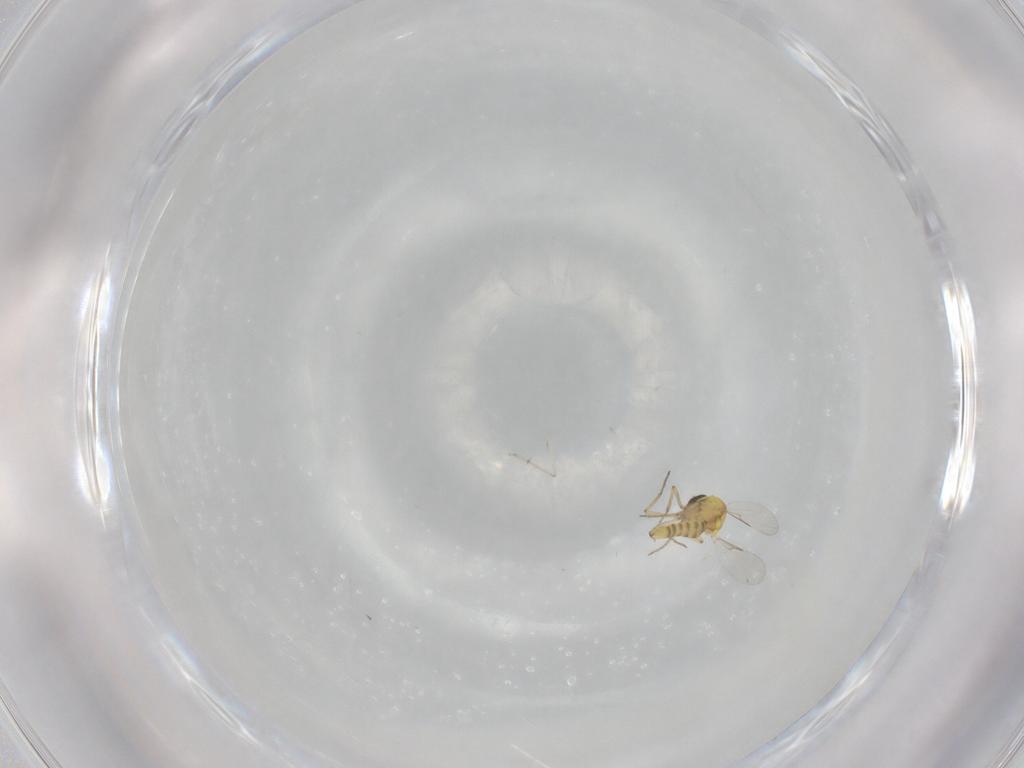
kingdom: Animalia
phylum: Arthropoda
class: Insecta
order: Diptera
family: Ceratopogonidae
